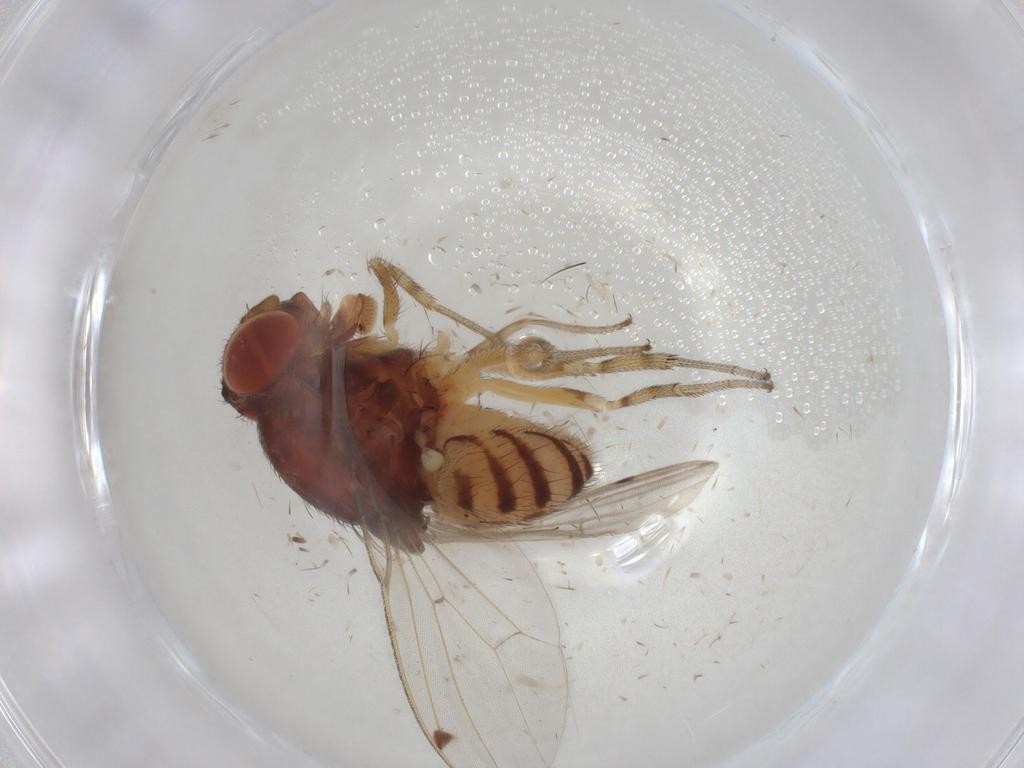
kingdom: Animalia
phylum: Arthropoda
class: Insecta
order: Diptera
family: Drosophilidae
